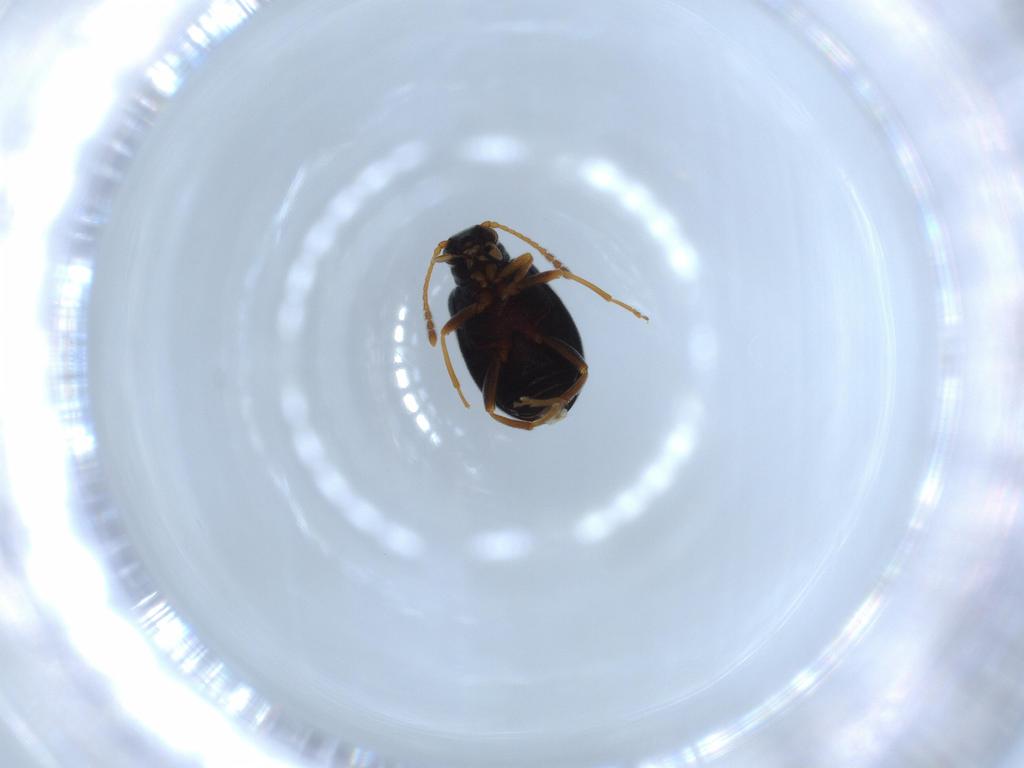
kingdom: Animalia
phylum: Arthropoda
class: Insecta
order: Coleoptera
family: Aderidae
